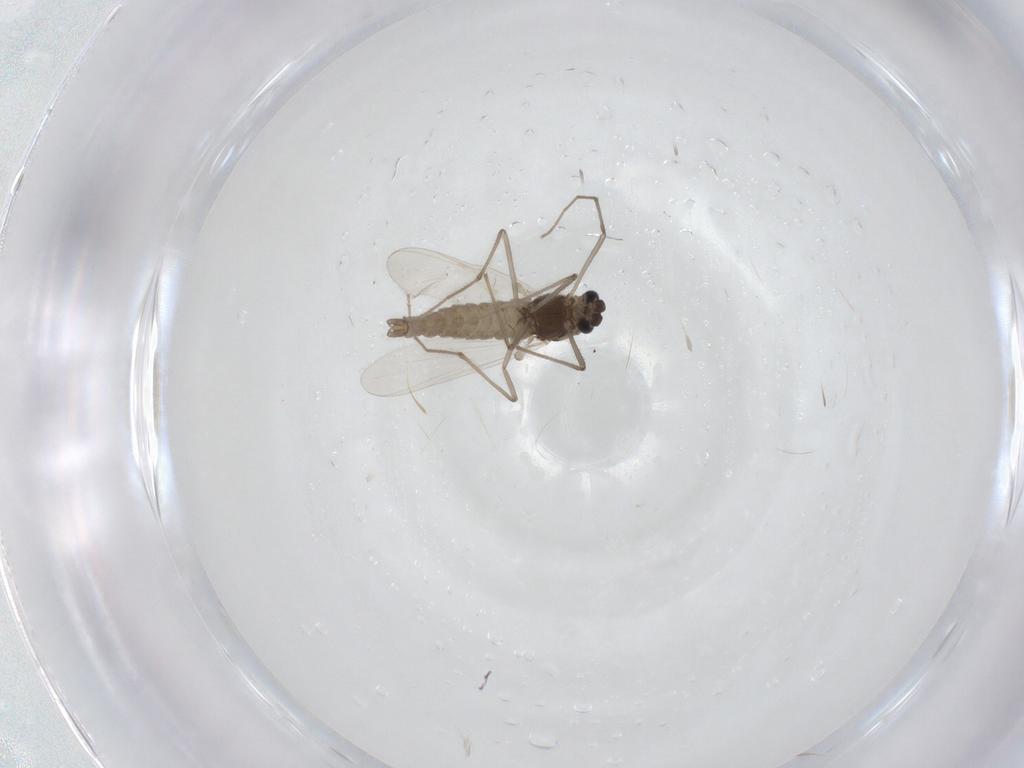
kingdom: Animalia
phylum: Arthropoda
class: Insecta
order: Diptera
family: Chironomidae
